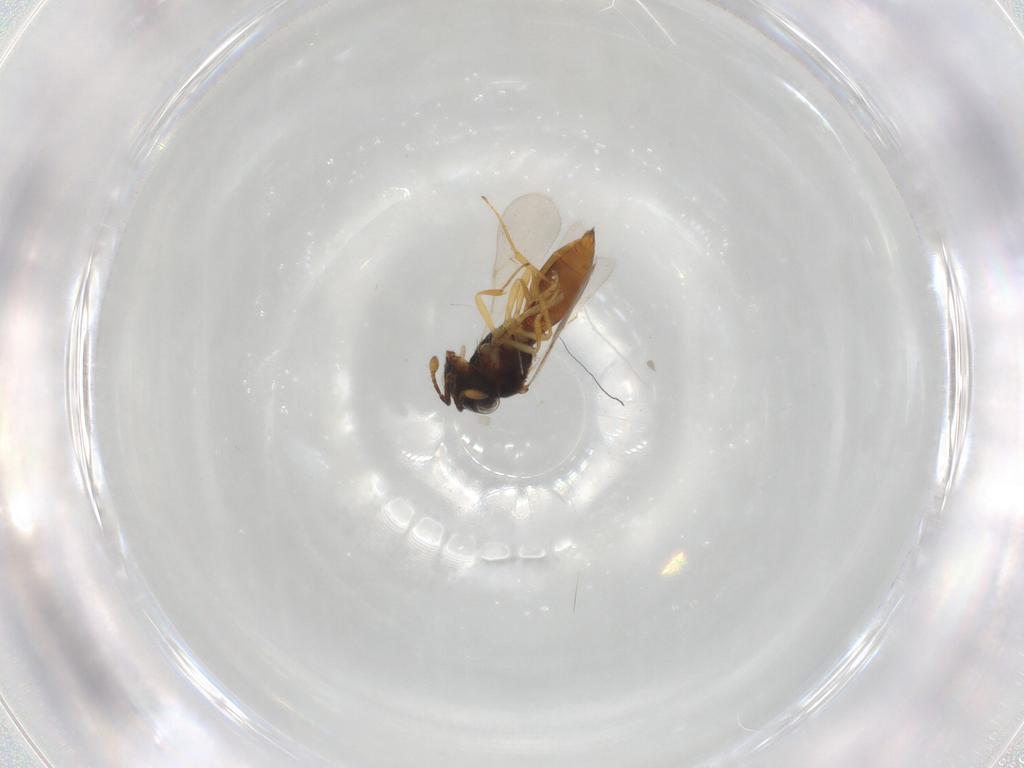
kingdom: Animalia
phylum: Arthropoda
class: Insecta
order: Hymenoptera
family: Scelionidae
